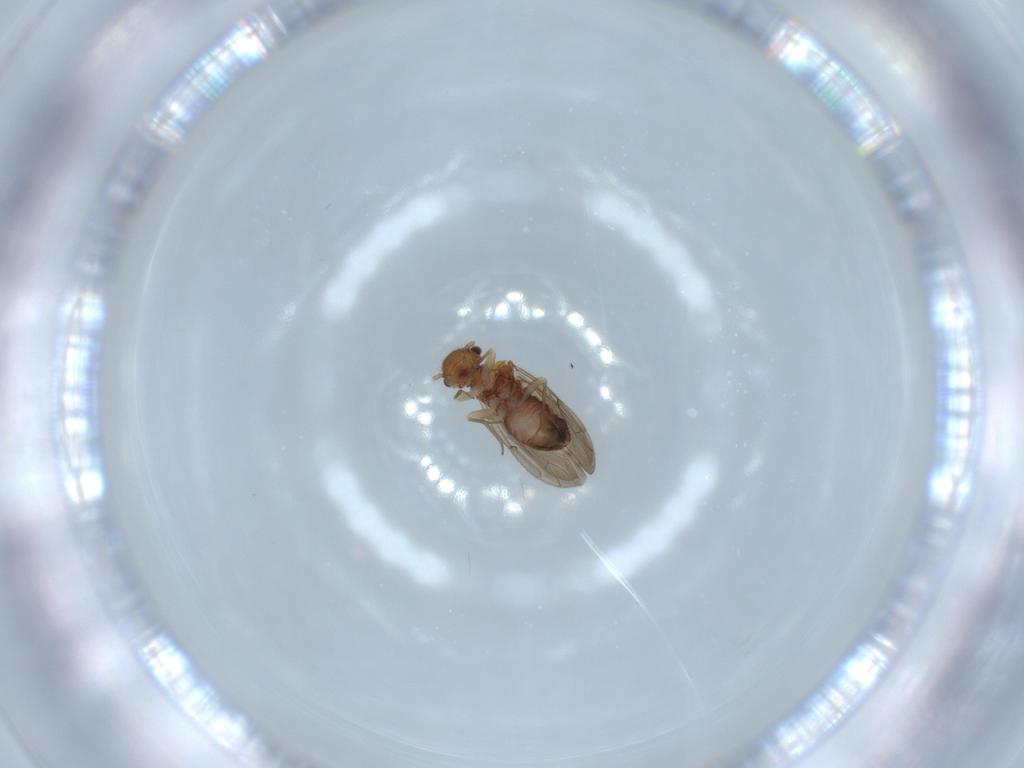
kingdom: Animalia
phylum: Arthropoda
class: Insecta
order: Psocodea
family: Ectopsocidae
